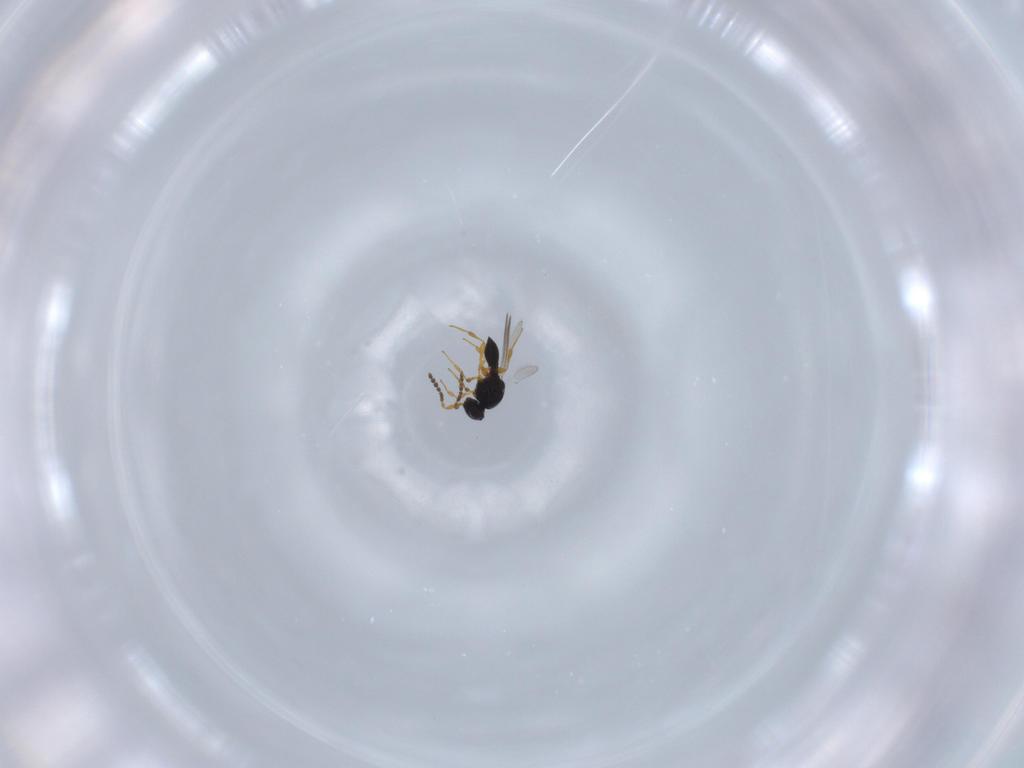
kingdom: Animalia
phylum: Arthropoda
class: Insecta
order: Hymenoptera
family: Platygastridae
